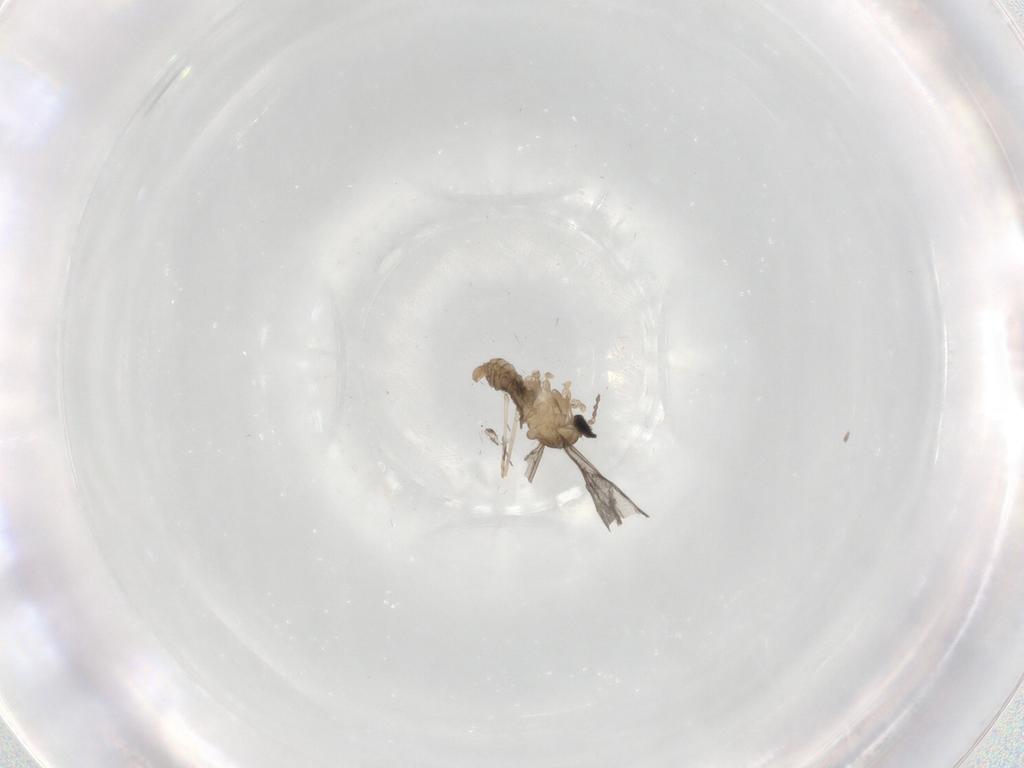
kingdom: Animalia
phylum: Arthropoda
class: Insecta
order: Diptera
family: Cecidomyiidae
